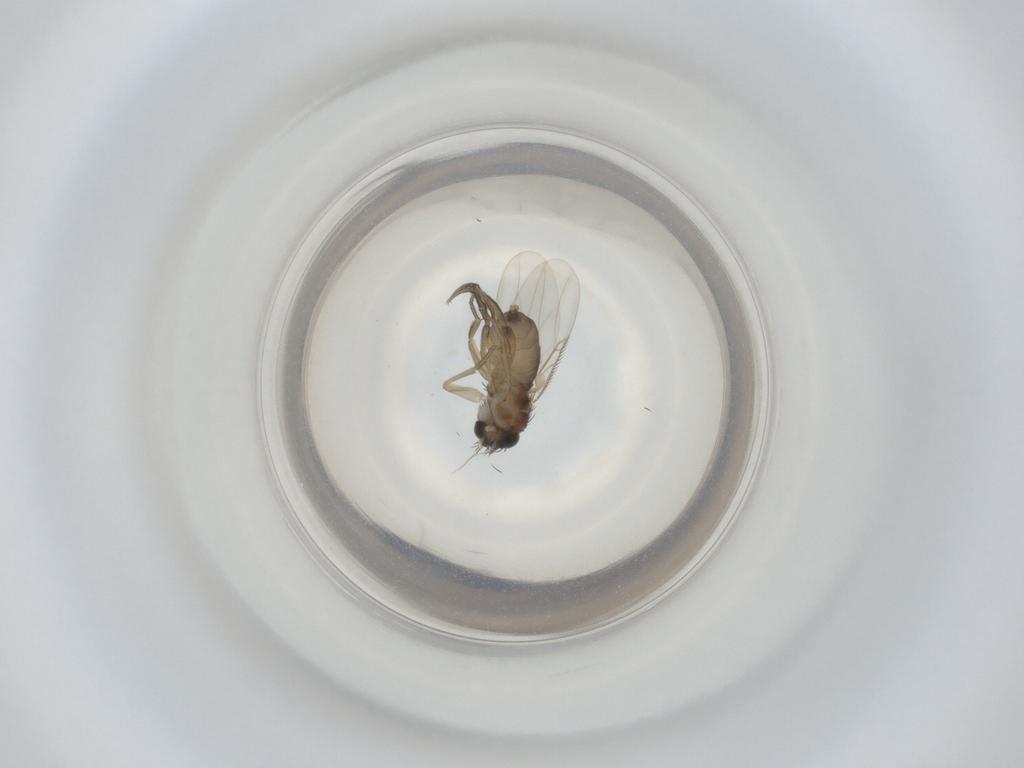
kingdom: Animalia
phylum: Arthropoda
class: Insecta
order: Diptera
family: Phoridae
